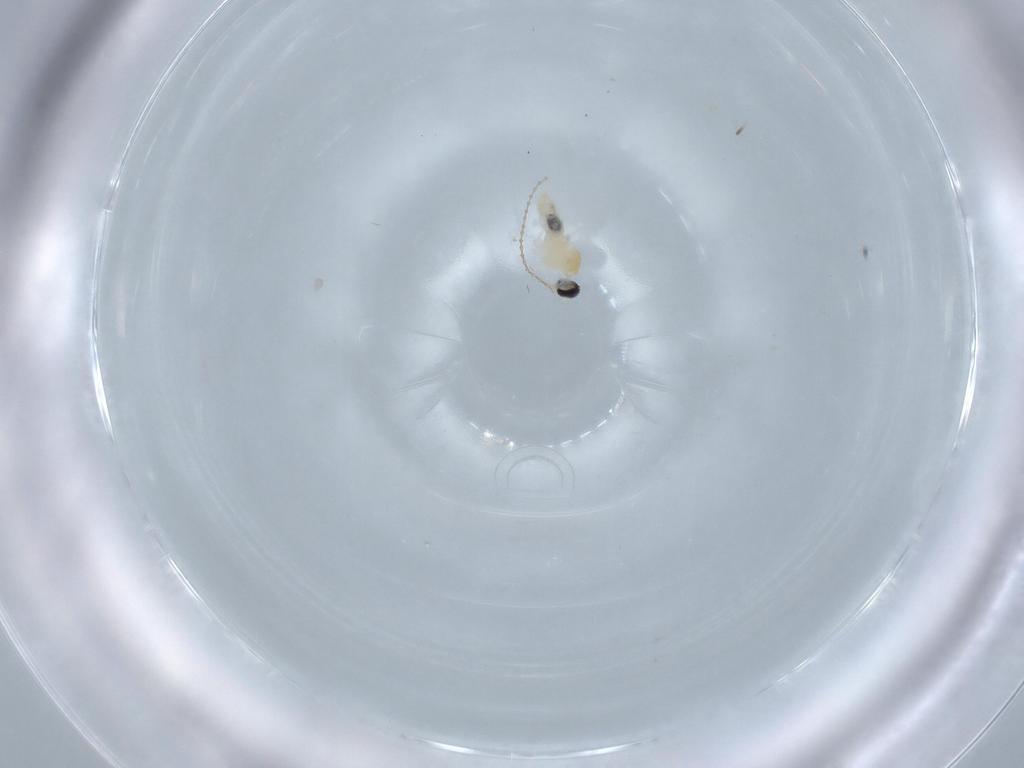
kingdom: Animalia
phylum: Arthropoda
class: Insecta
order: Diptera
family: Cecidomyiidae
